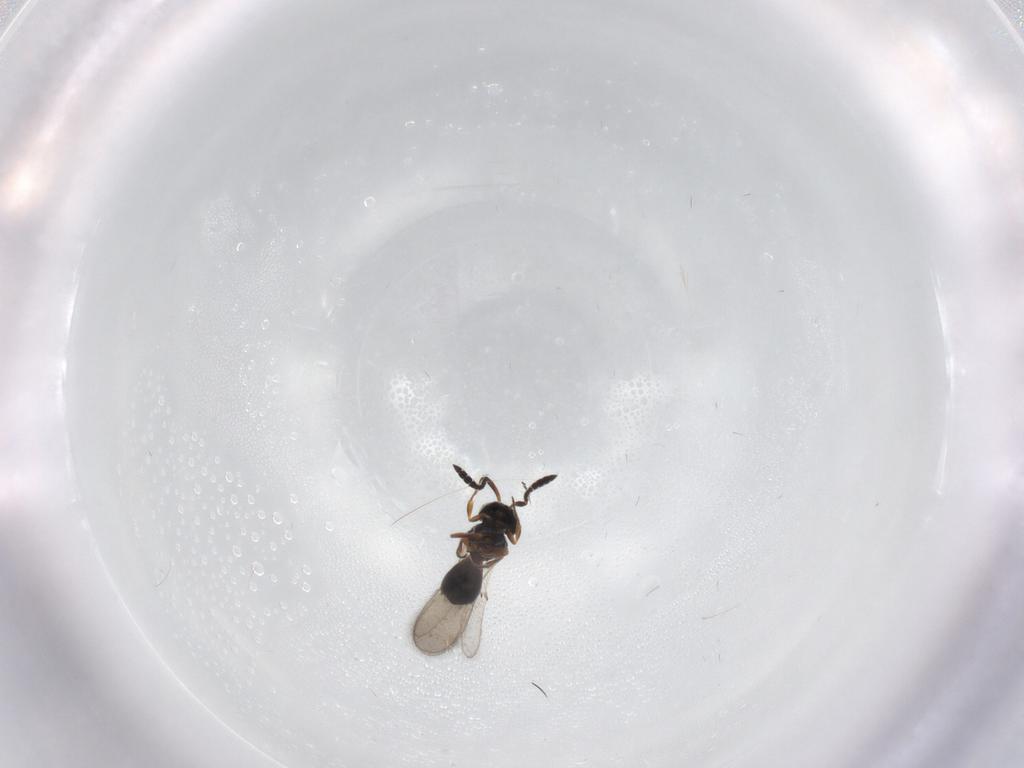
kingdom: Animalia
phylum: Arthropoda
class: Insecta
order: Hymenoptera
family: Scelionidae
